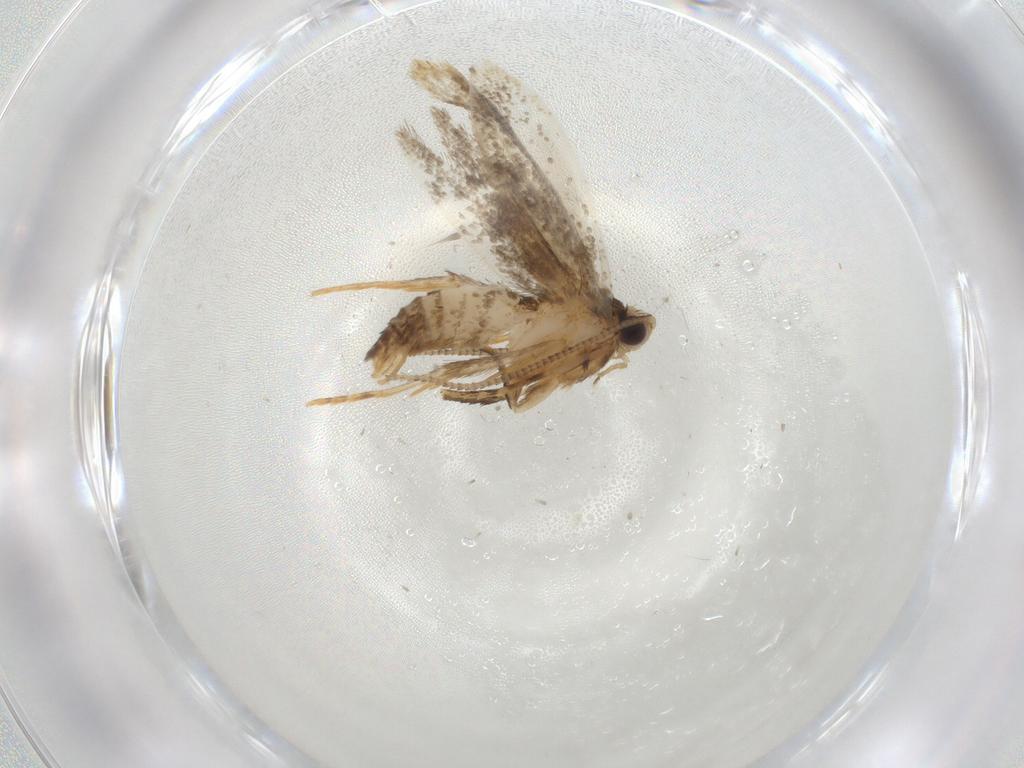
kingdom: Animalia
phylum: Arthropoda
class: Insecta
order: Lepidoptera
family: Tineidae
